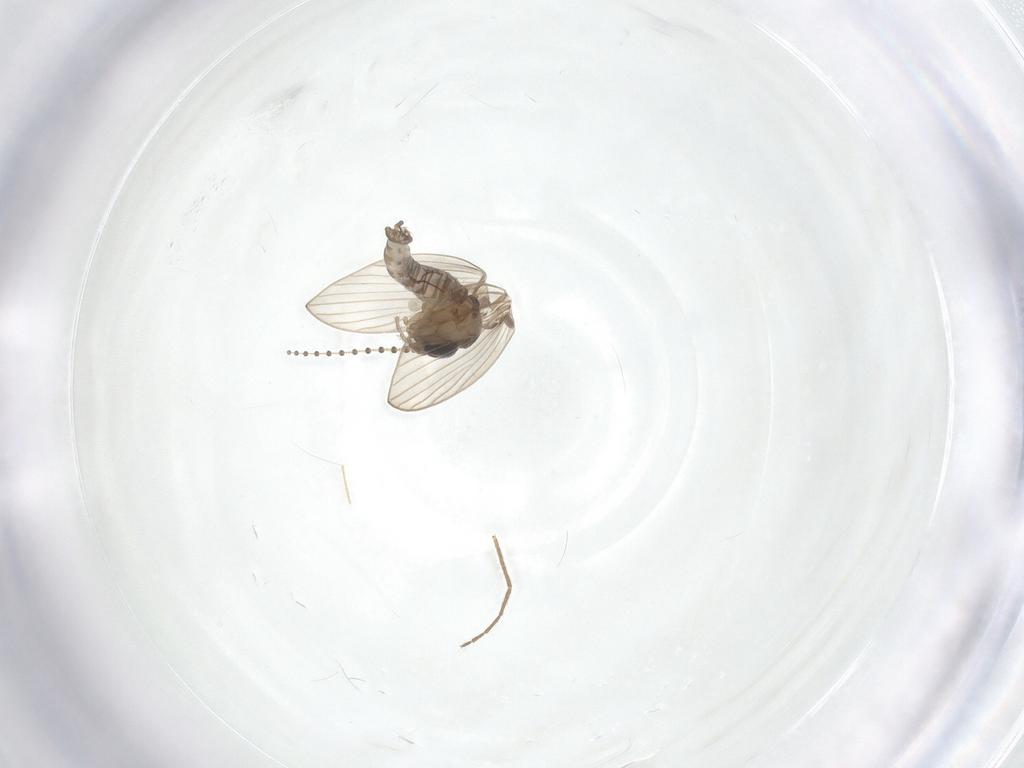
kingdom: Animalia
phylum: Arthropoda
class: Insecta
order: Diptera
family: Psychodidae
